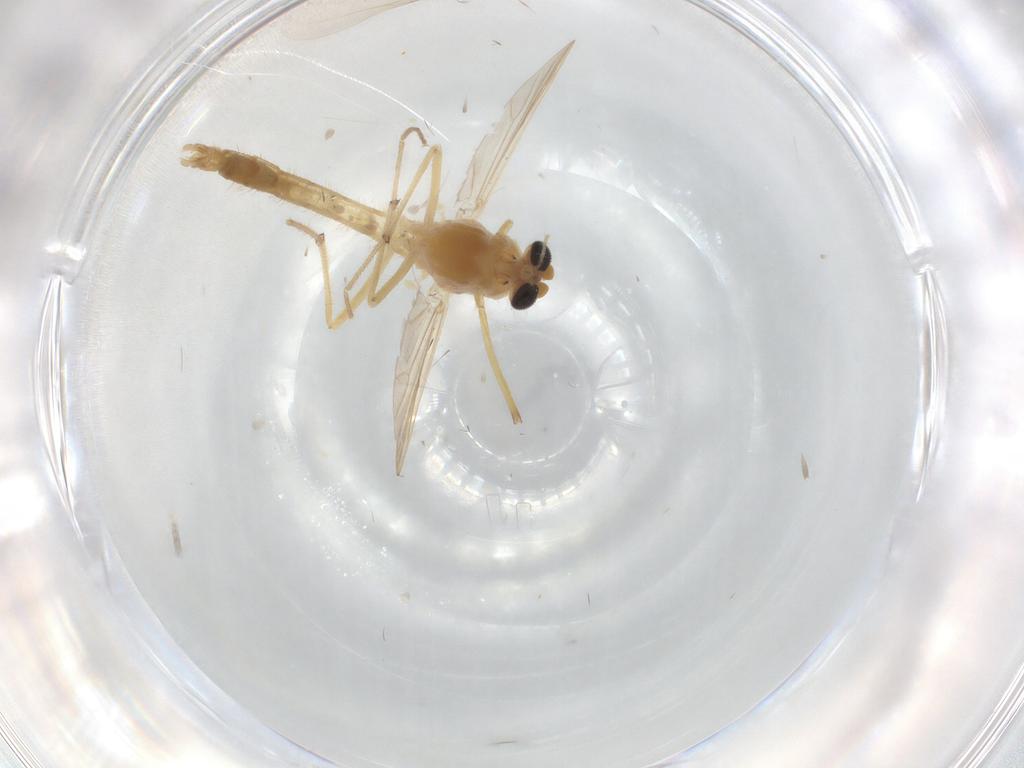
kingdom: Animalia
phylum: Arthropoda
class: Insecta
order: Diptera
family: Chironomidae
